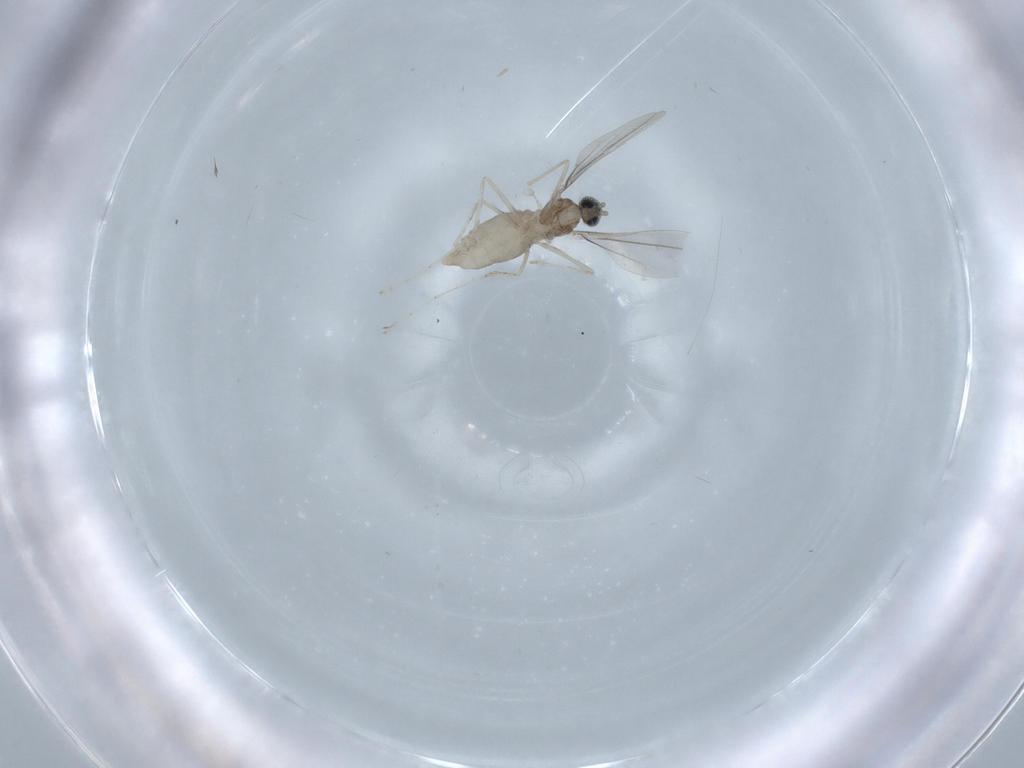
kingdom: Animalia
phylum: Arthropoda
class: Insecta
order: Diptera
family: Cecidomyiidae
